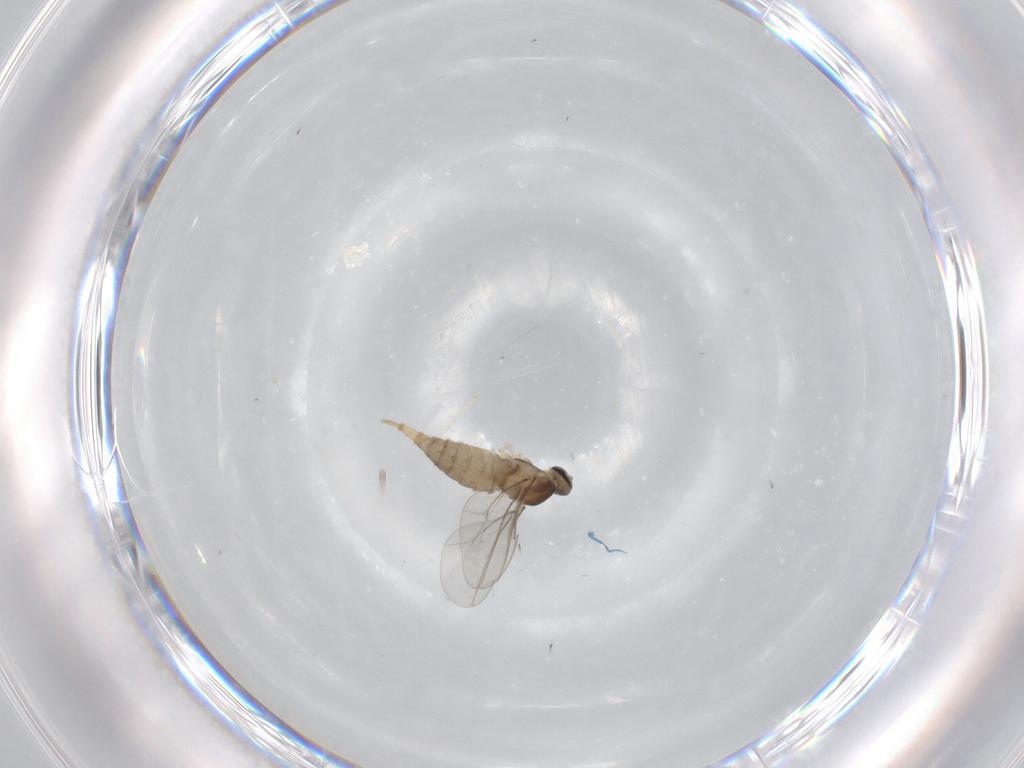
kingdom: Animalia
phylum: Arthropoda
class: Insecta
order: Diptera
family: Cecidomyiidae
